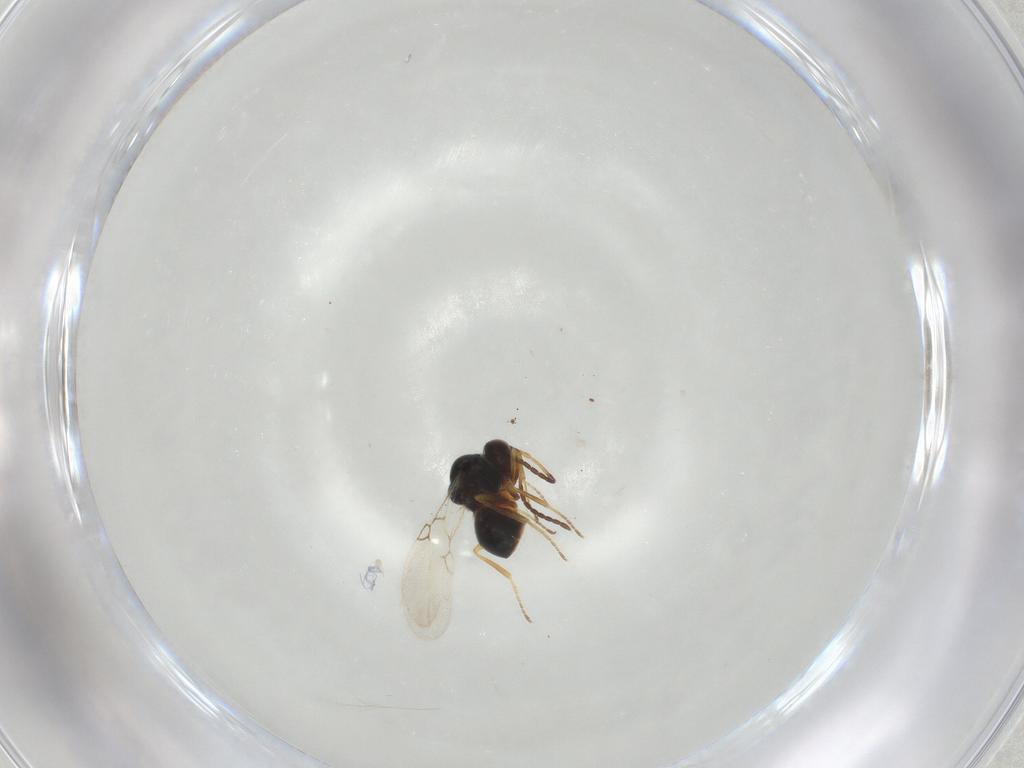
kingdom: Animalia
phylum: Arthropoda
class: Insecta
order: Hymenoptera
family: Figitidae
